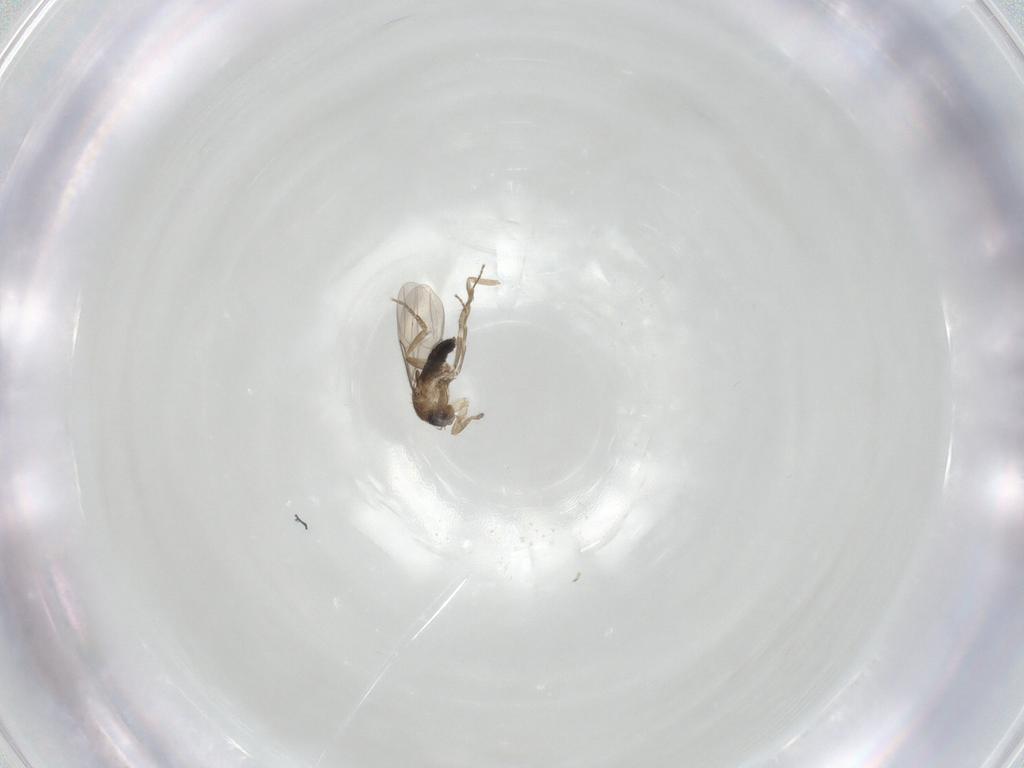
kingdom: Animalia
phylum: Arthropoda
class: Insecta
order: Diptera
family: Phoridae
